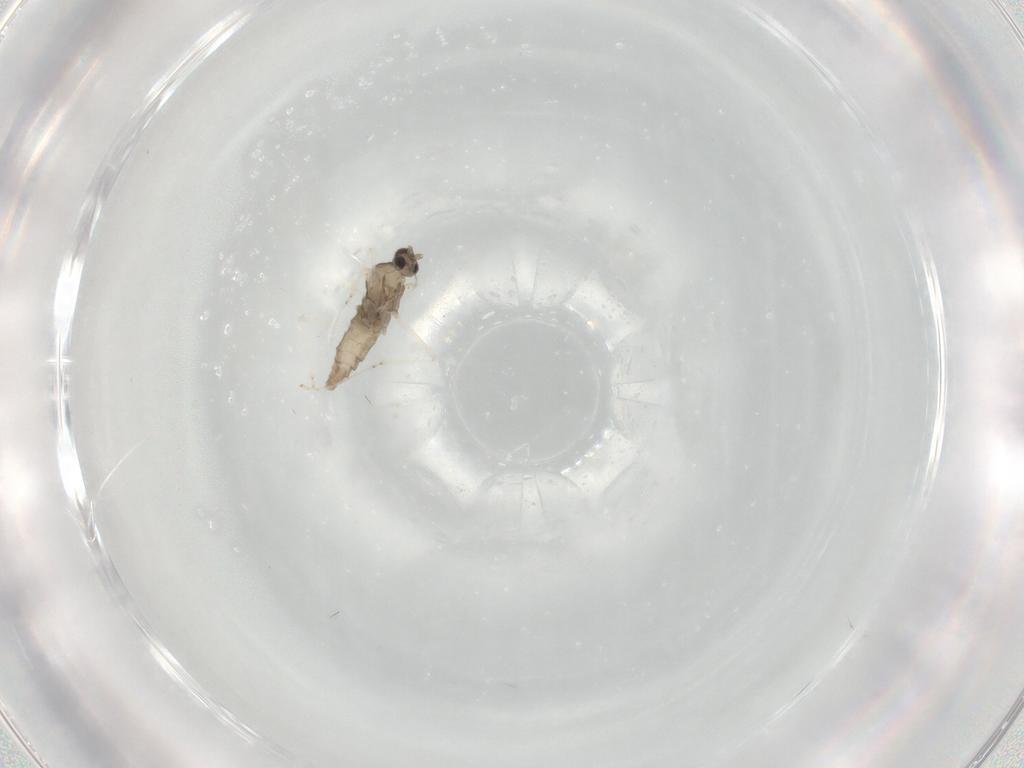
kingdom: Animalia
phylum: Arthropoda
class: Insecta
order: Diptera
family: Cecidomyiidae
